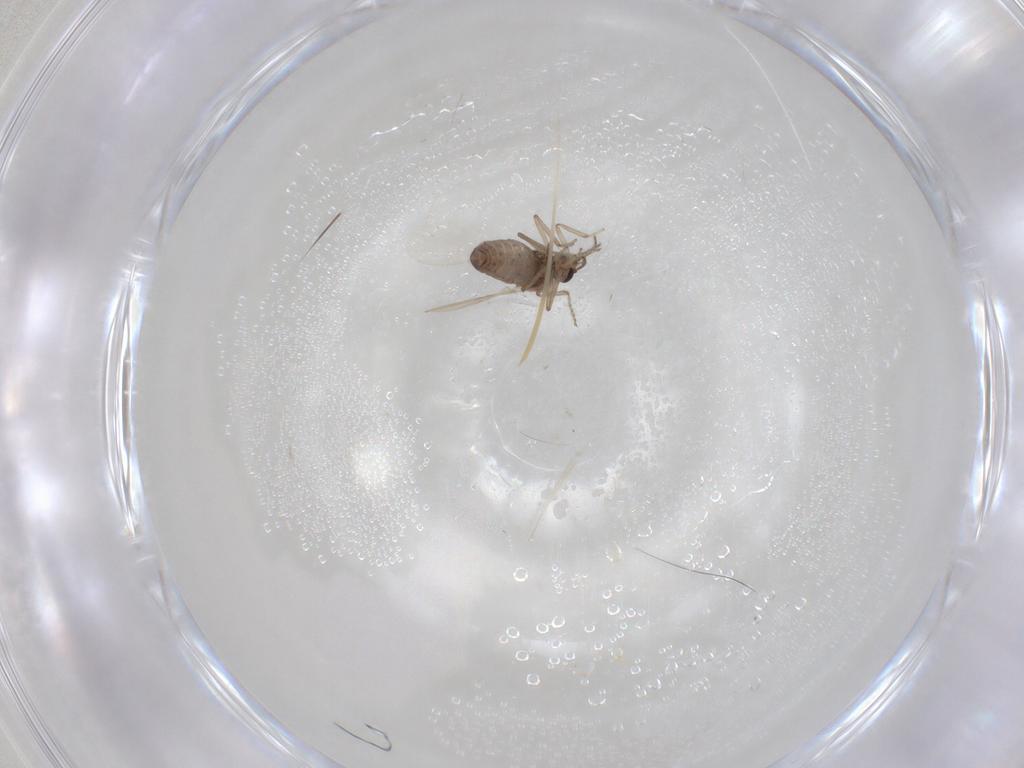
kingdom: Animalia
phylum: Arthropoda
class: Insecta
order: Diptera
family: Ceratopogonidae
